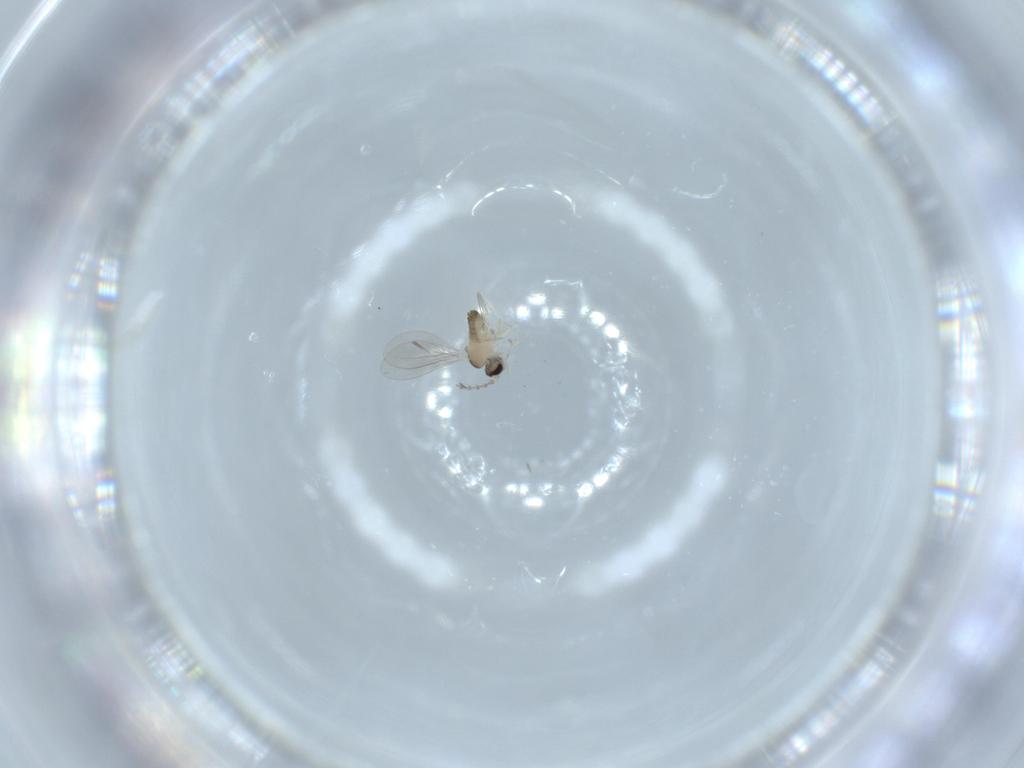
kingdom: Animalia
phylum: Arthropoda
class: Insecta
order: Diptera
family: Cecidomyiidae
